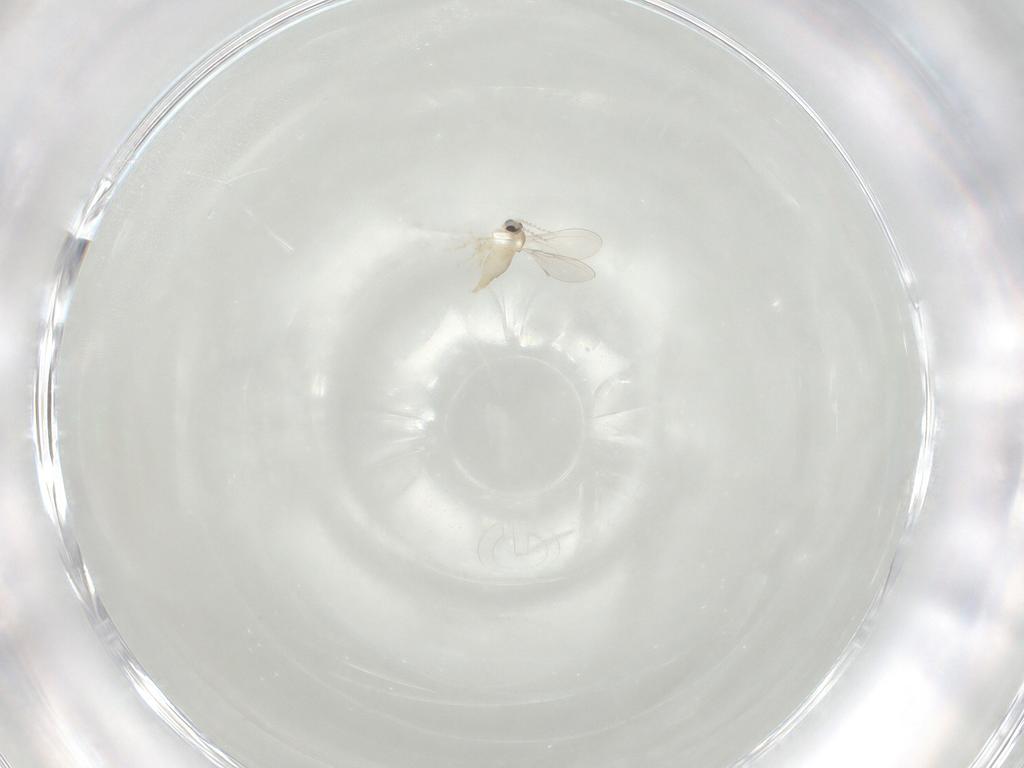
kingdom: Animalia
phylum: Arthropoda
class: Insecta
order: Diptera
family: Cecidomyiidae
